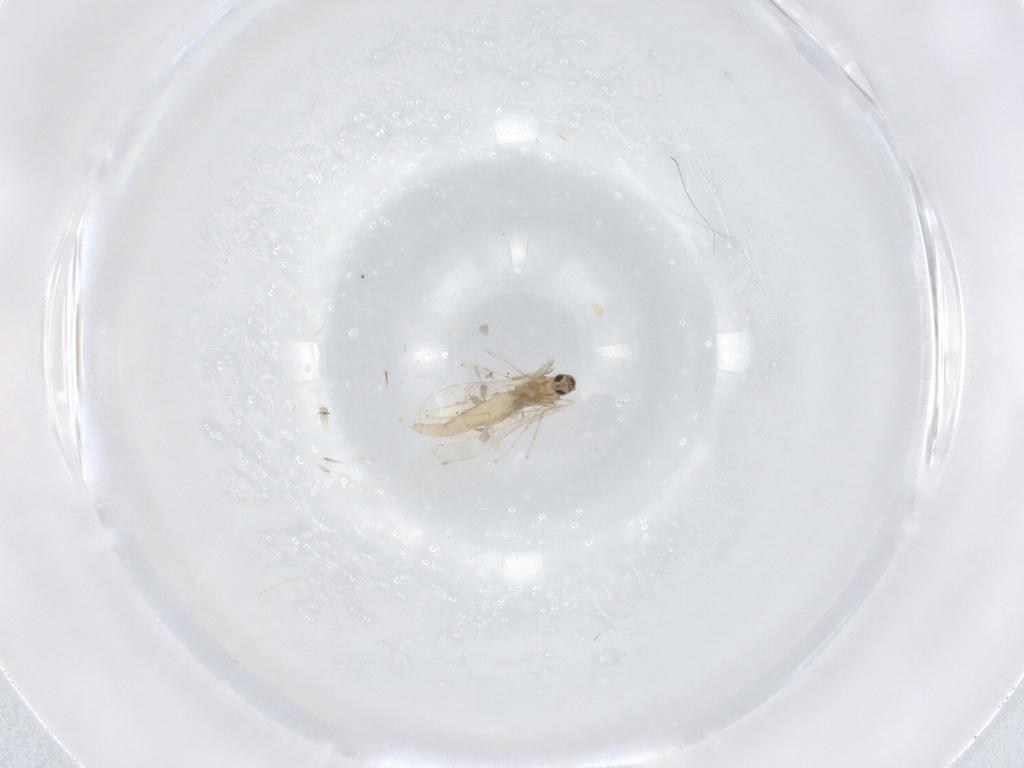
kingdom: Animalia
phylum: Arthropoda
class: Insecta
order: Diptera
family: Cecidomyiidae
